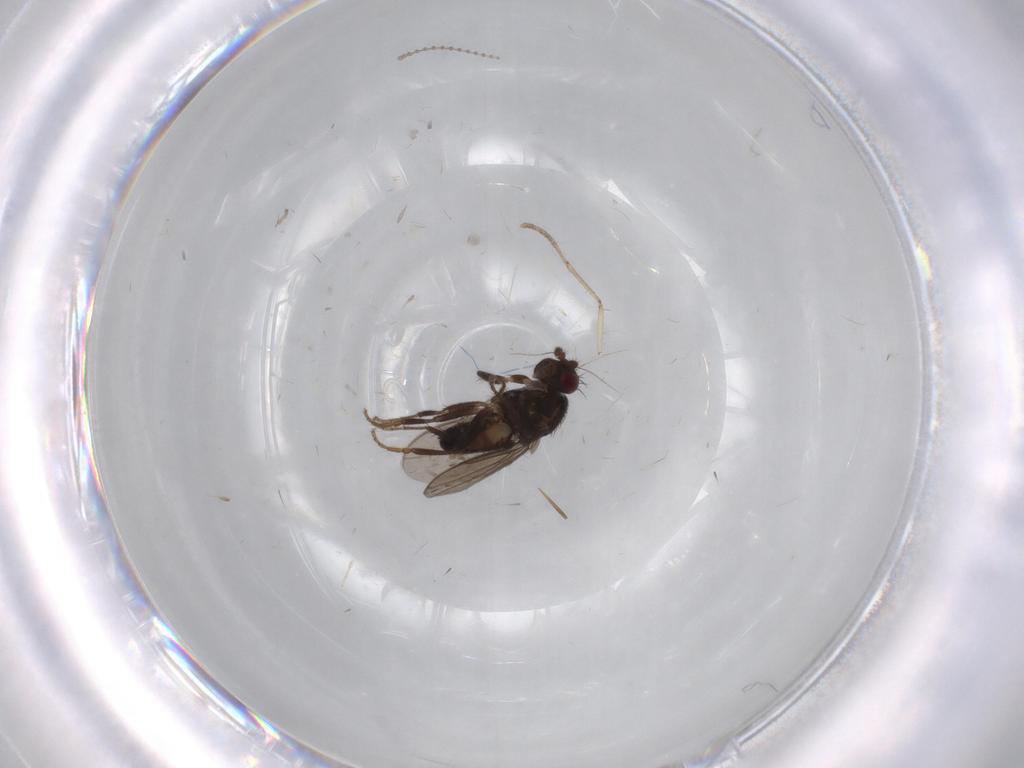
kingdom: Animalia
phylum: Arthropoda
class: Insecta
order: Diptera
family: Sphaeroceridae
